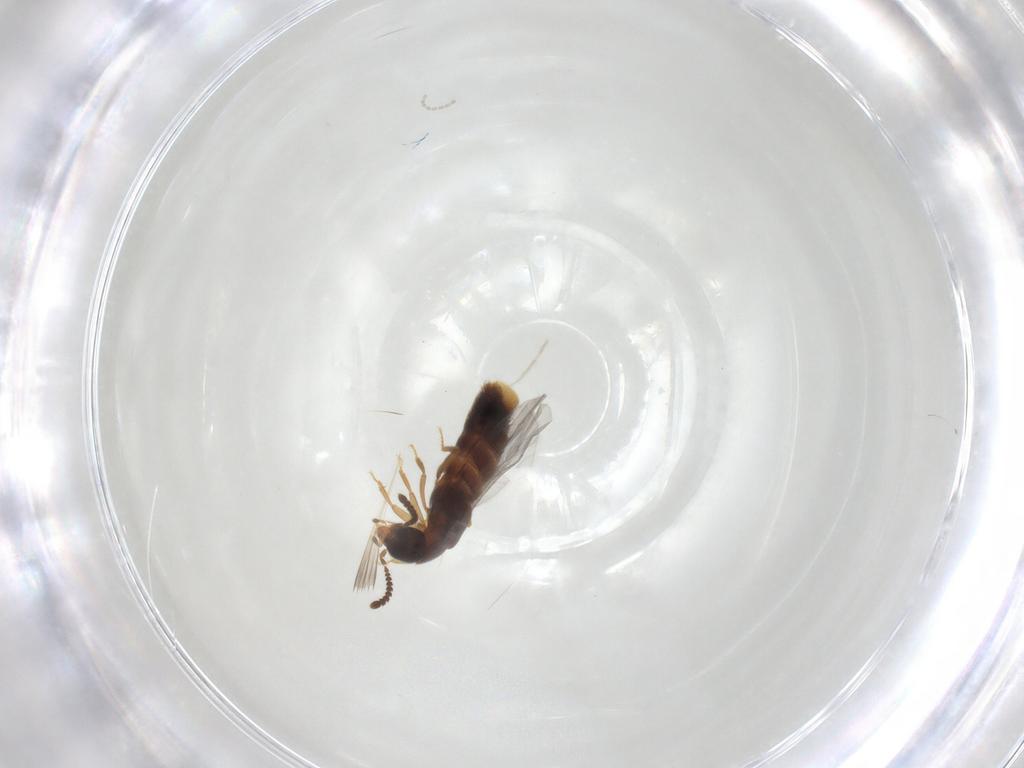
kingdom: Animalia
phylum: Arthropoda
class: Insecta
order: Coleoptera
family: Staphylinidae
